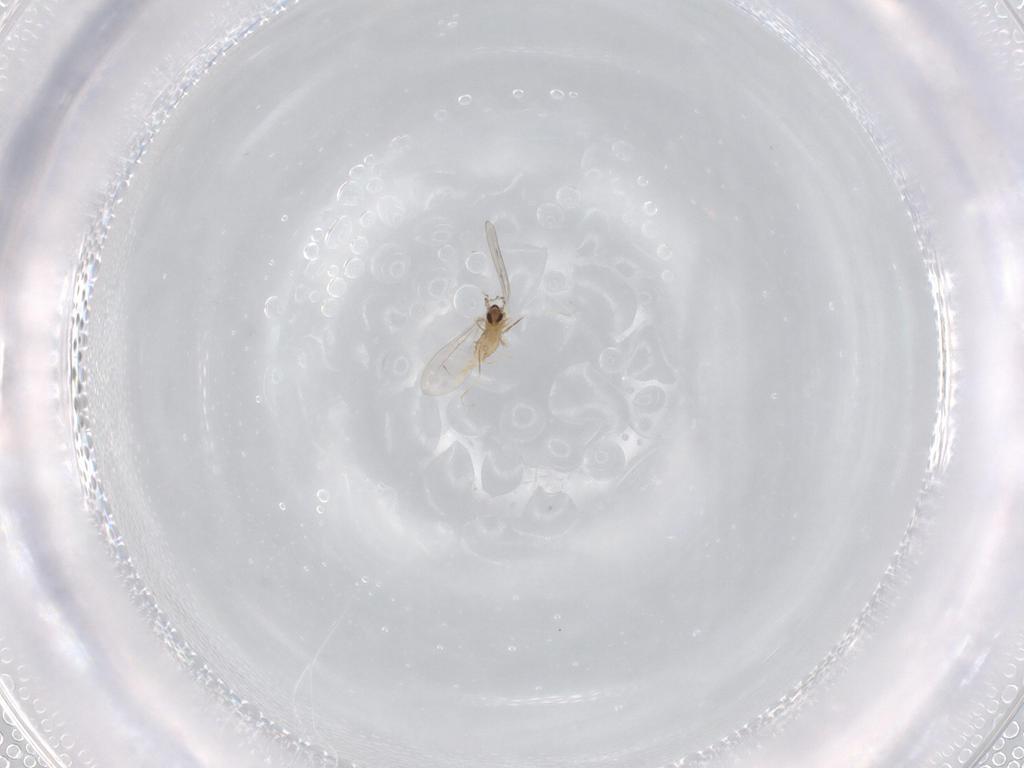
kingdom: Animalia
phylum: Arthropoda
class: Insecta
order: Diptera
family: Cecidomyiidae
